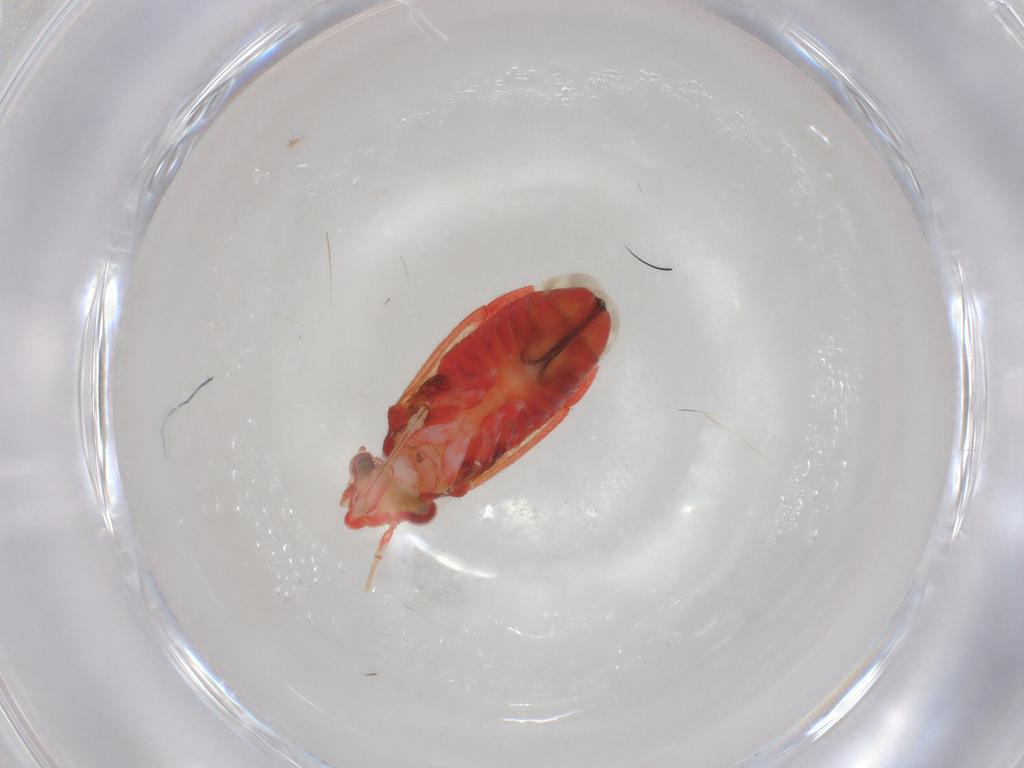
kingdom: Animalia
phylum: Arthropoda
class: Insecta
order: Hemiptera
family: Miridae
